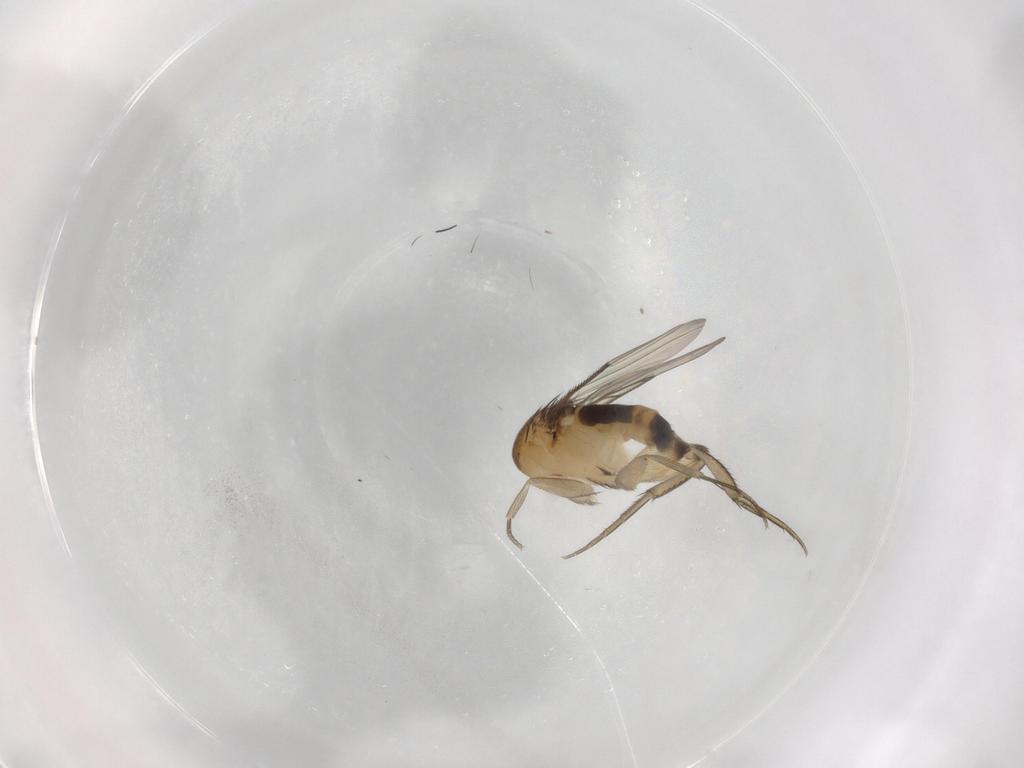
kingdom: Animalia
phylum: Arthropoda
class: Insecta
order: Diptera
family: Phoridae
